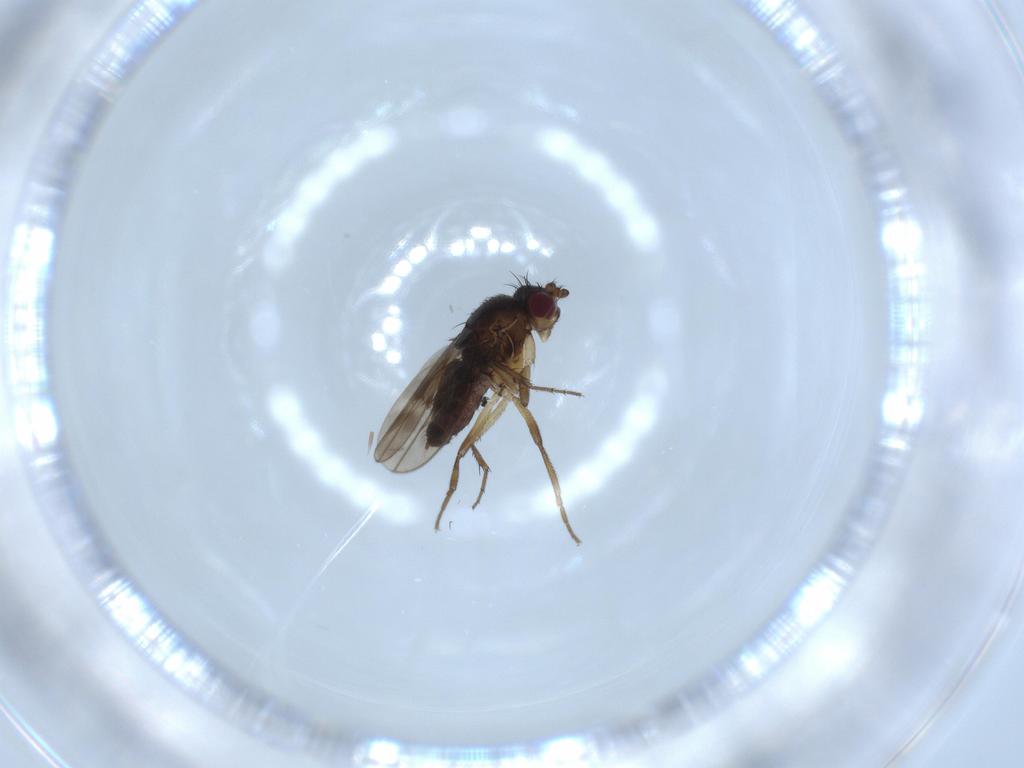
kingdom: Animalia
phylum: Arthropoda
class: Insecta
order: Diptera
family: Sphaeroceridae
